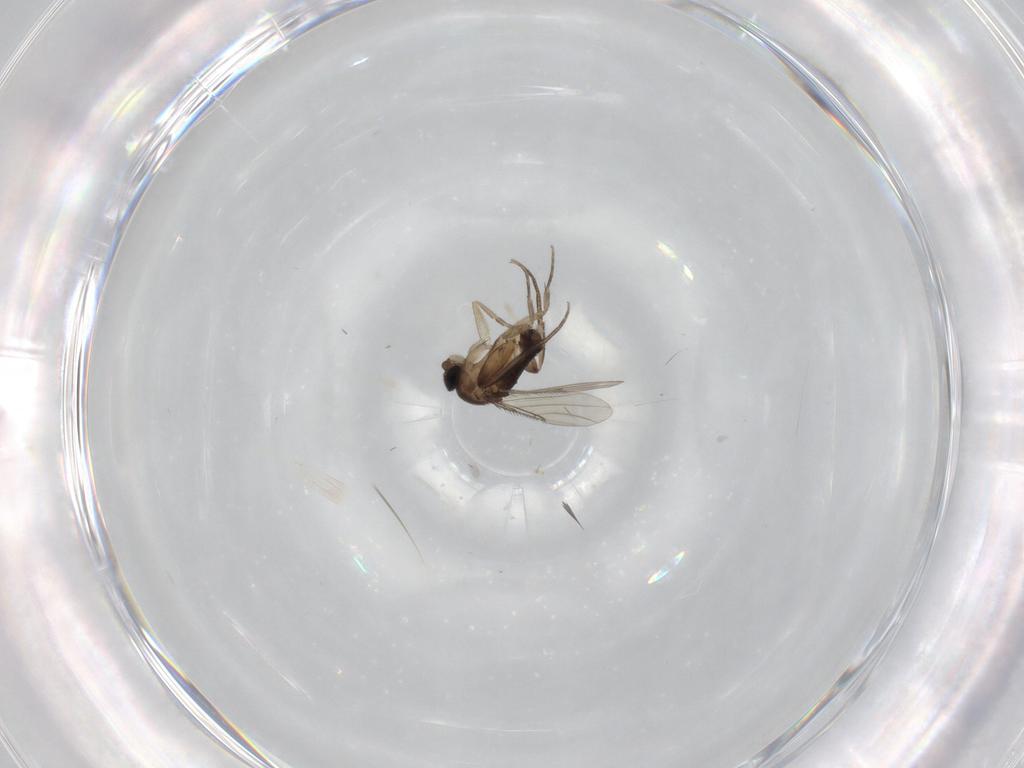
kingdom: Animalia
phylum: Arthropoda
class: Insecta
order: Diptera
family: Phoridae
